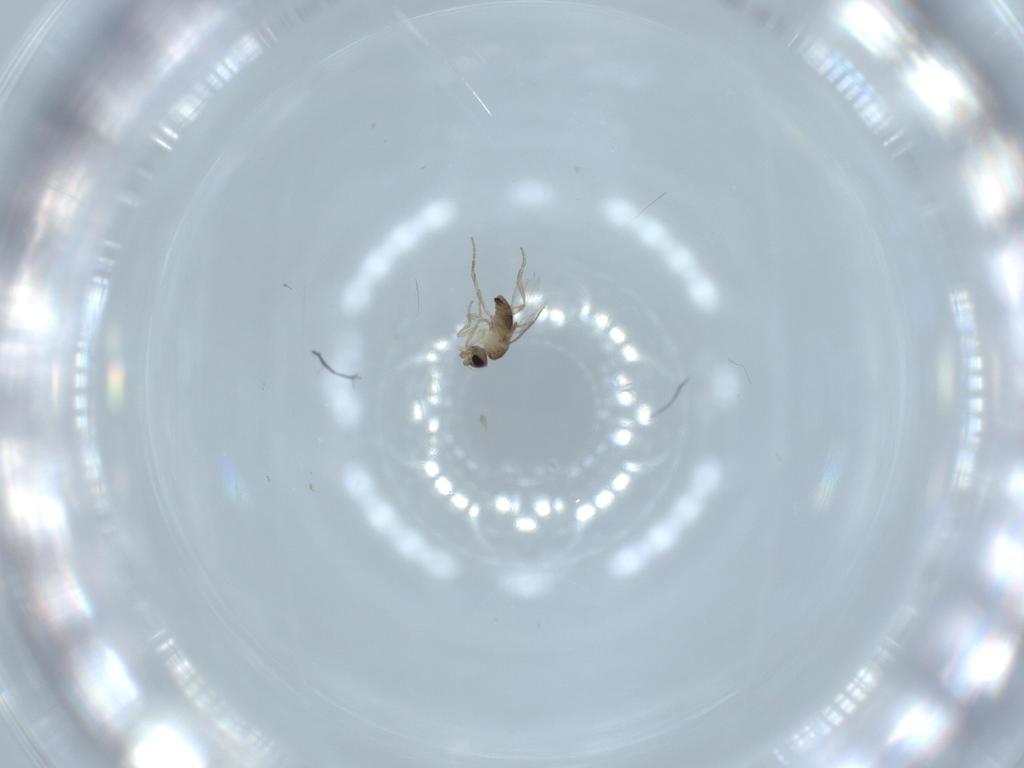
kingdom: Animalia
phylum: Arthropoda
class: Insecta
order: Diptera
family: Phoridae
